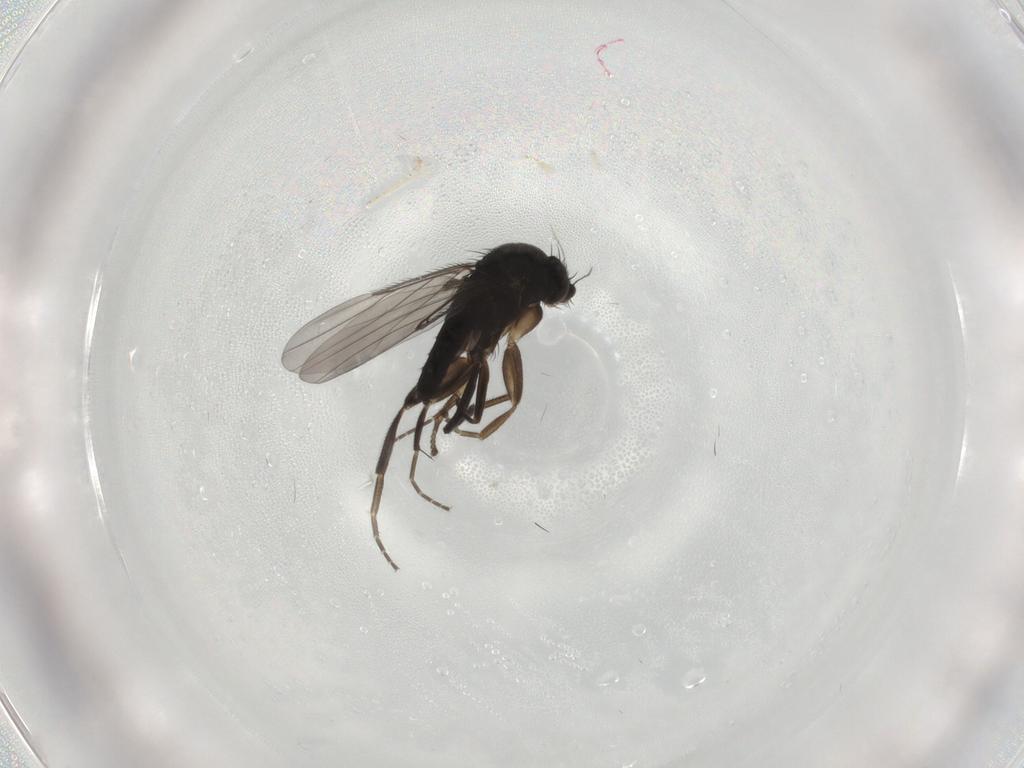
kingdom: Animalia
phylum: Arthropoda
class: Insecta
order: Diptera
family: Phoridae
